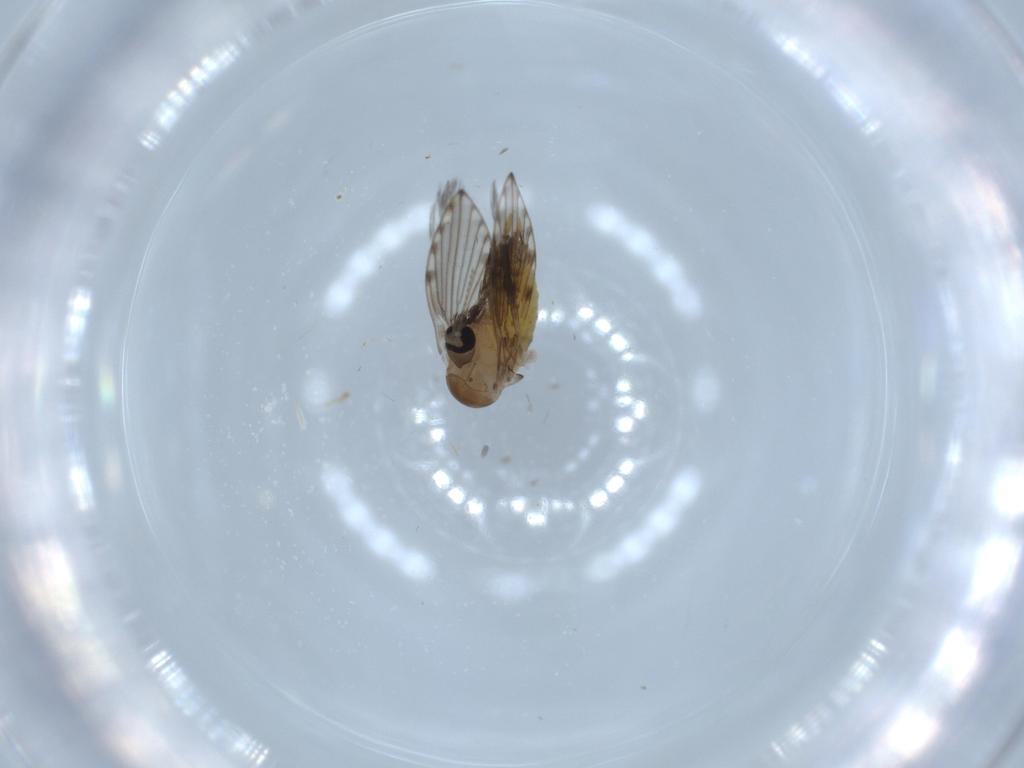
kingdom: Animalia
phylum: Arthropoda
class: Insecta
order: Diptera
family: Psychodidae
